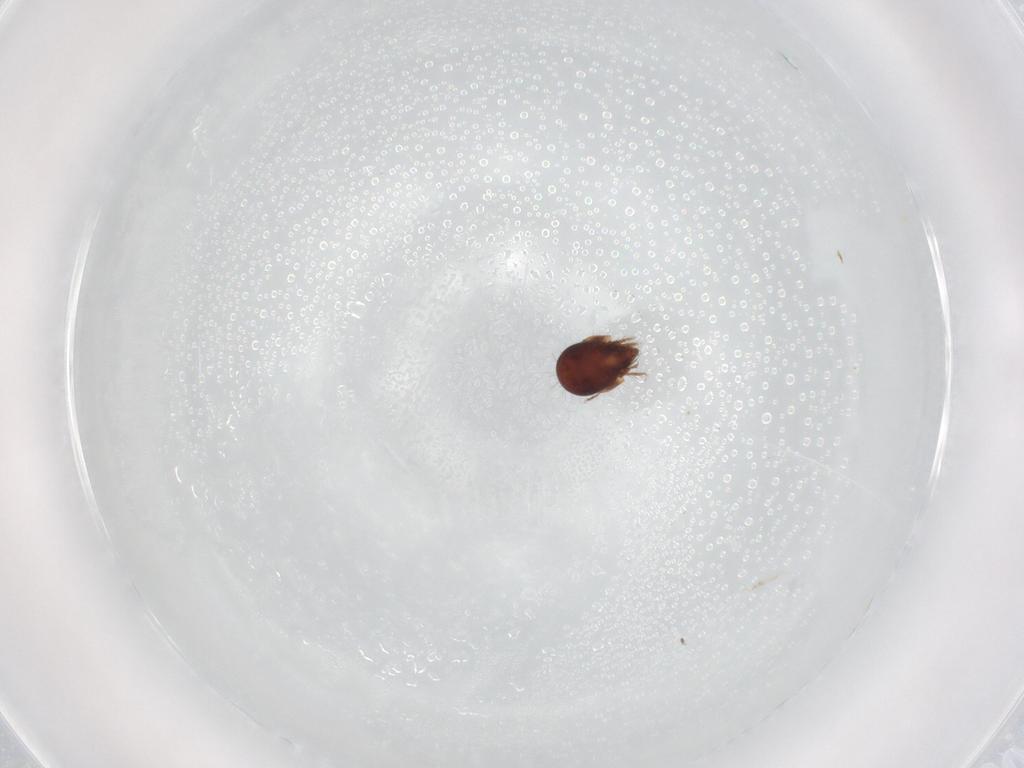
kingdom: Animalia
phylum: Arthropoda
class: Arachnida
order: Sarcoptiformes
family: Humerobatidae
